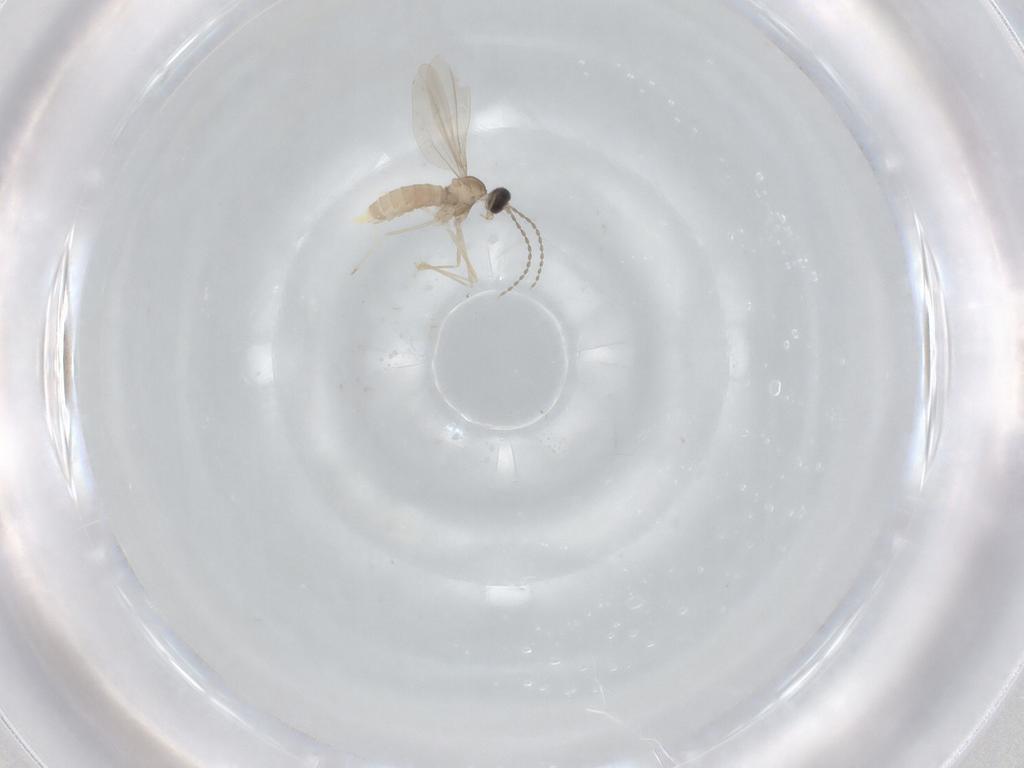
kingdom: Animalia
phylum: Arthropoda
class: Insecta
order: Diptera
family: Cecidomyiidae
